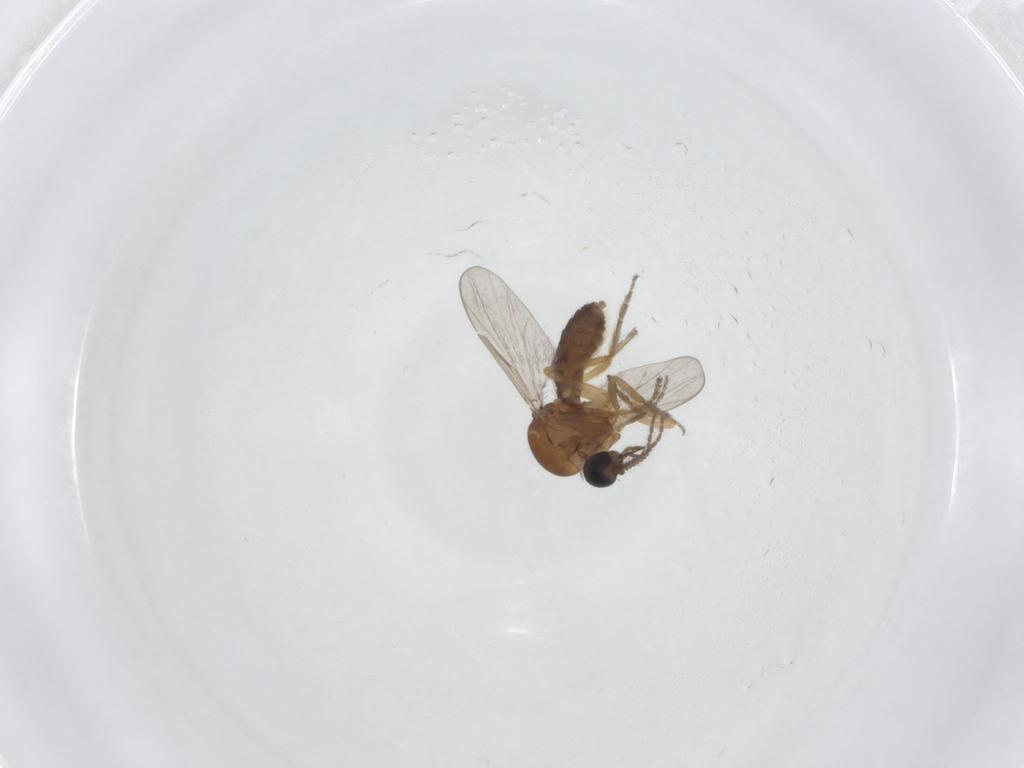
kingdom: Animalia
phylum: Arthropoda
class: Insecta
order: Diptera
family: Ceratopogonidae
